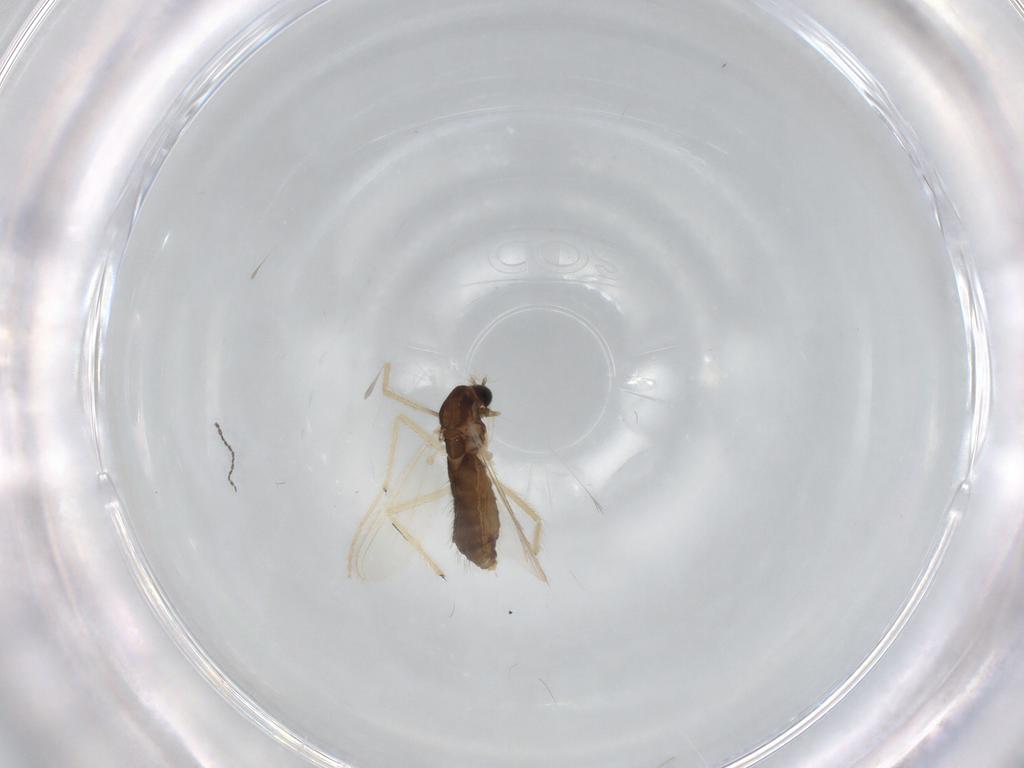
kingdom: Animalia
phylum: Arthropoda
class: Insecta
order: Diptera
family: Chironomidae
